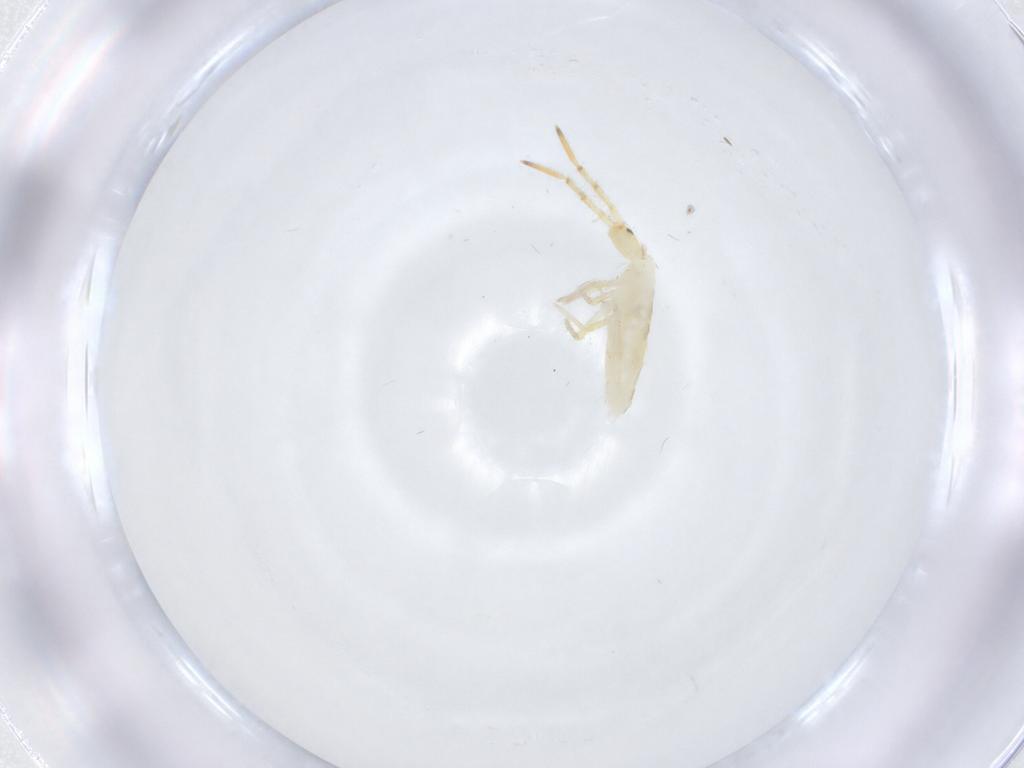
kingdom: Animalia
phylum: Arthropoda
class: Collembola
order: Entomobryomorpha
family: Entomobryidae
